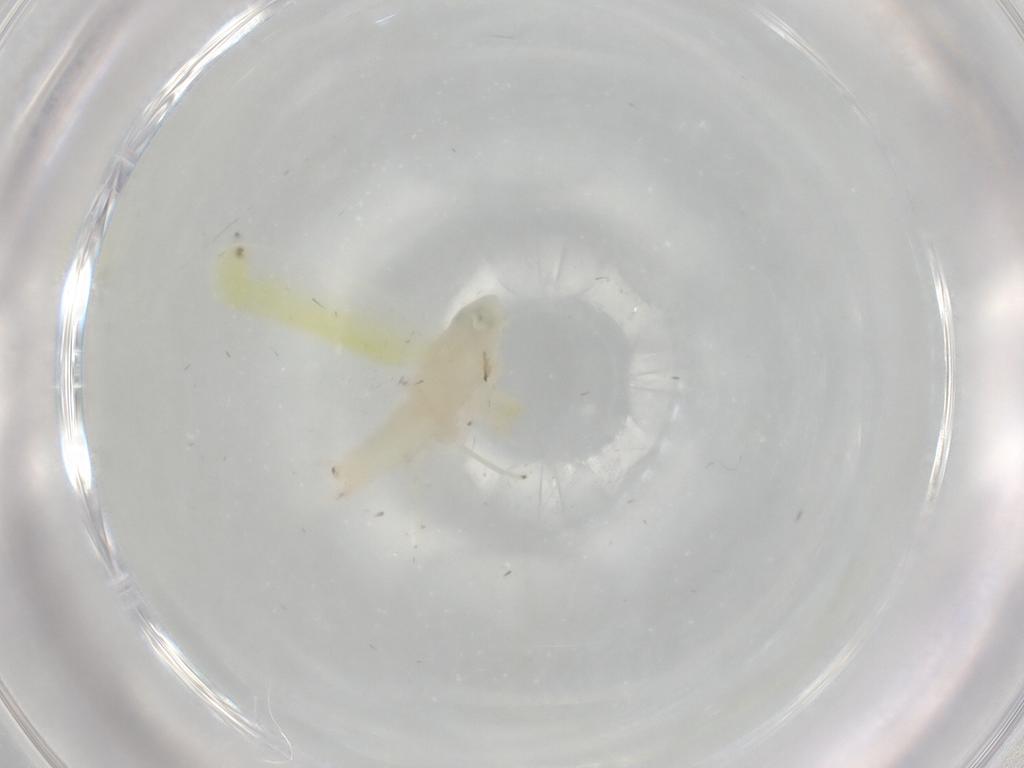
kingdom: Animalia
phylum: Arthropoda
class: Insecta
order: Hemiptera
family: Cicadellidae
